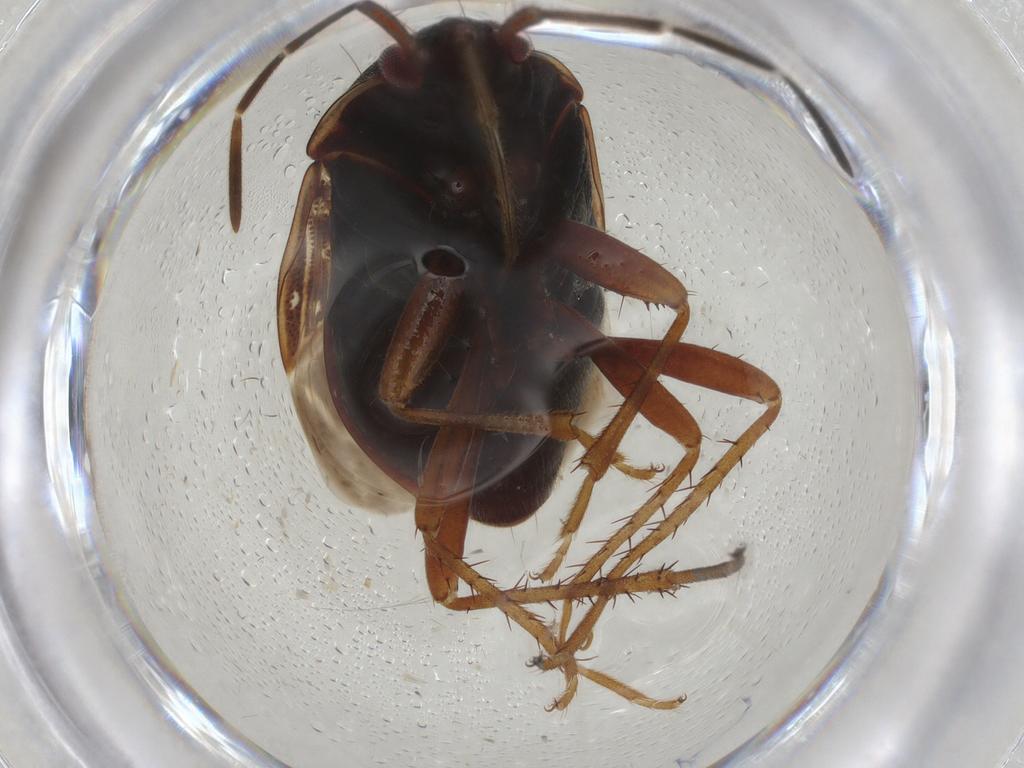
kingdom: Animalia
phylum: Arthropoda
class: Insecta
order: Hemiptera
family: Rhyparochromidae
